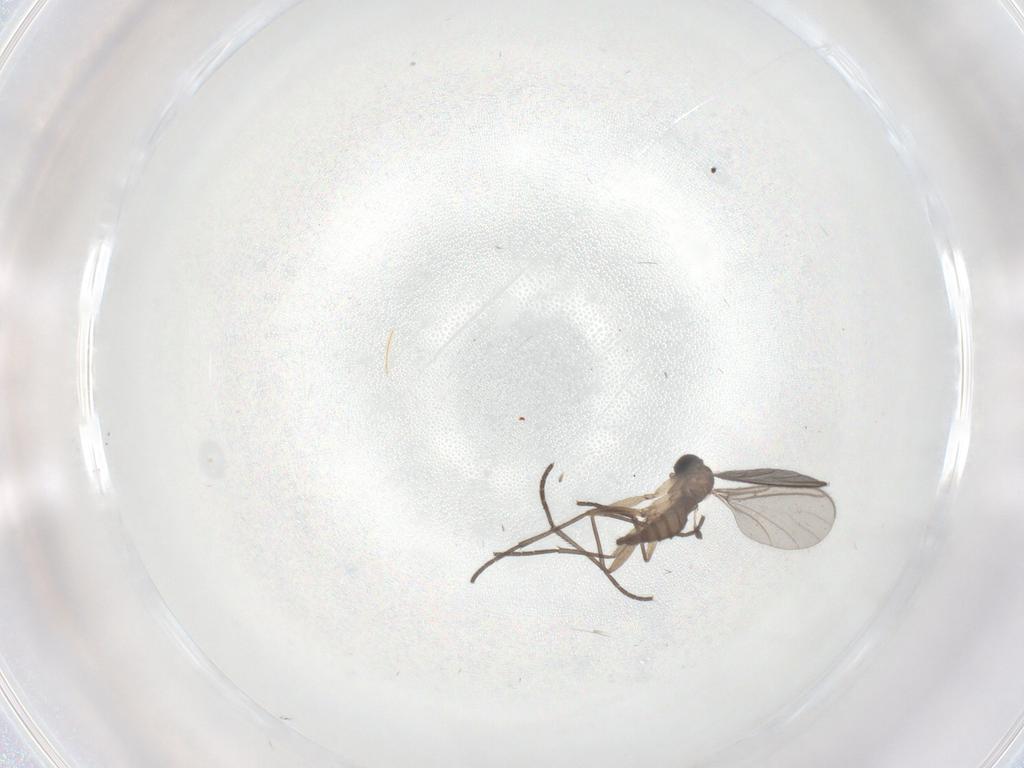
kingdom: Animalia
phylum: Arthropoda
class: Insecta
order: Diptera
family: Sciaridae
